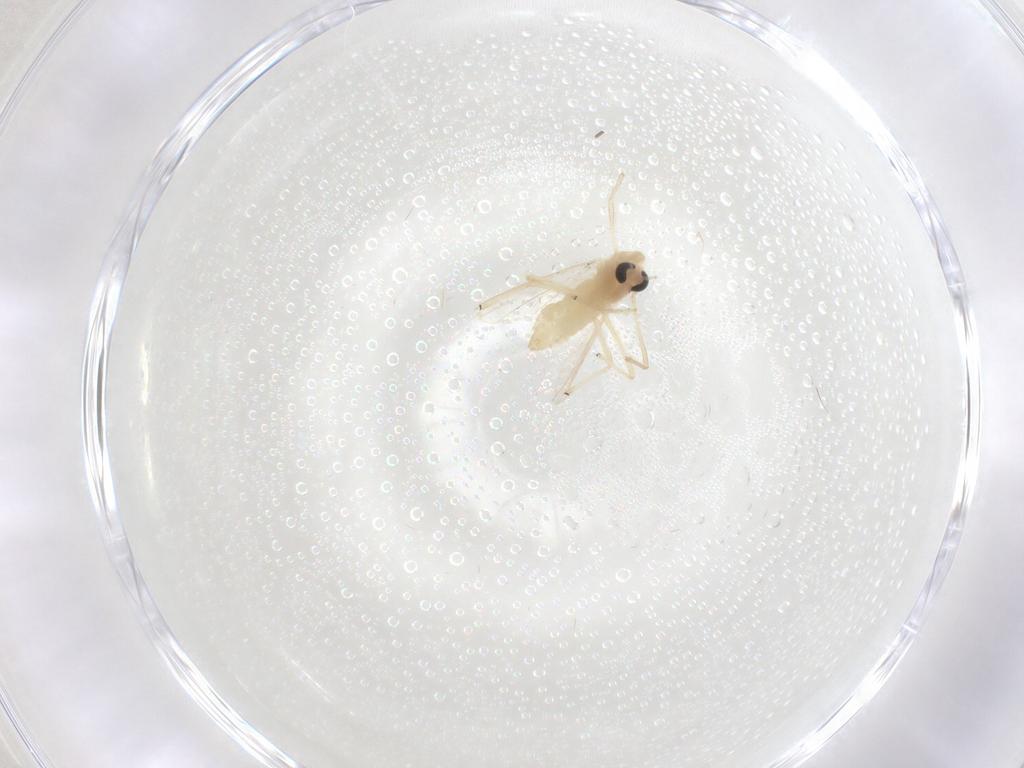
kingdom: Animalia
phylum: Arthropoda
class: Insecta
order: Diptera
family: Chironomidae
